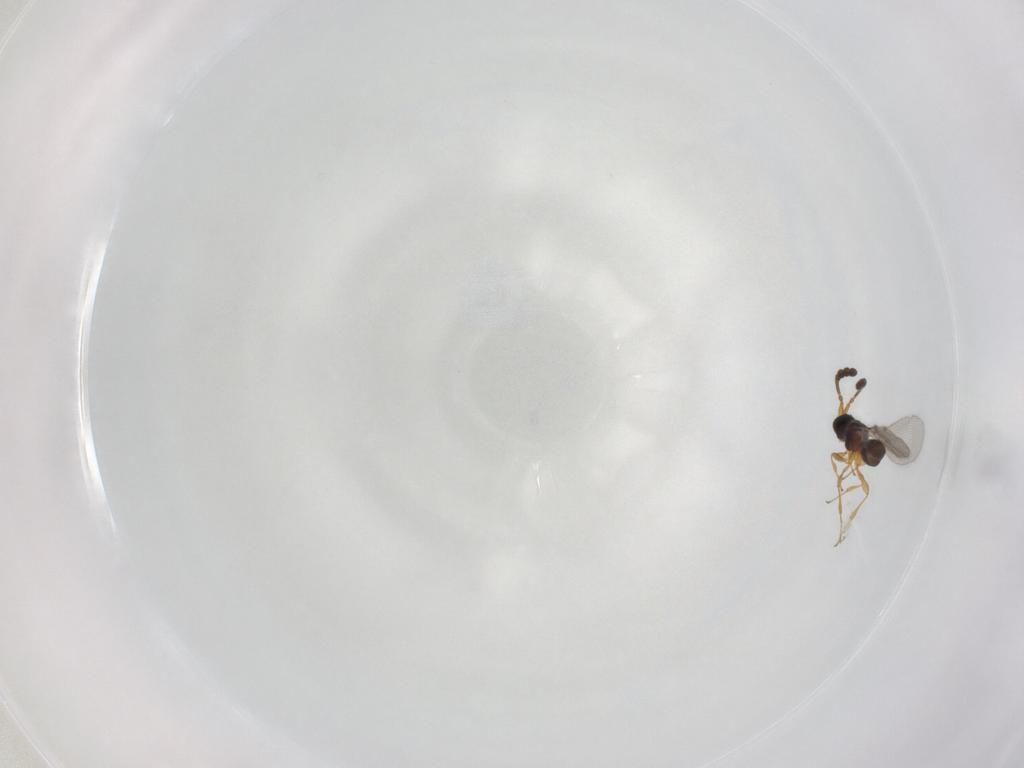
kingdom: Animalia
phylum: Arthropoda
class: Insecta
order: Hymenoptera
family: Diapriidae
